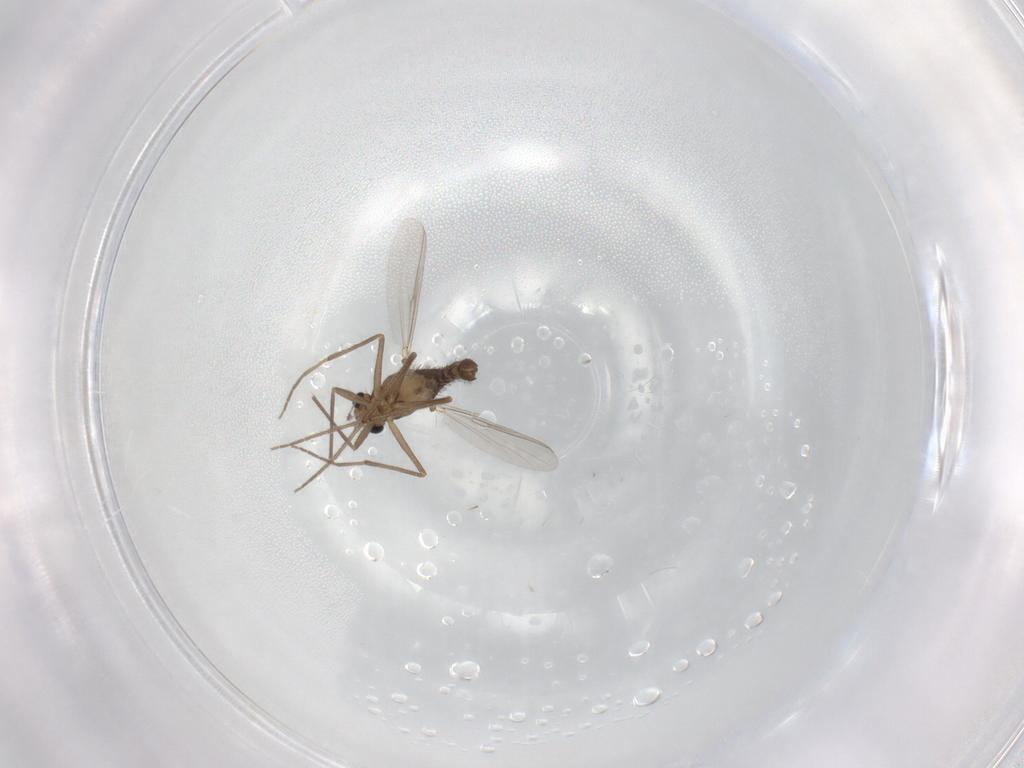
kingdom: Animalia
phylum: Arthropoda
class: Insecta
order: Diptera
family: Chironomidae
